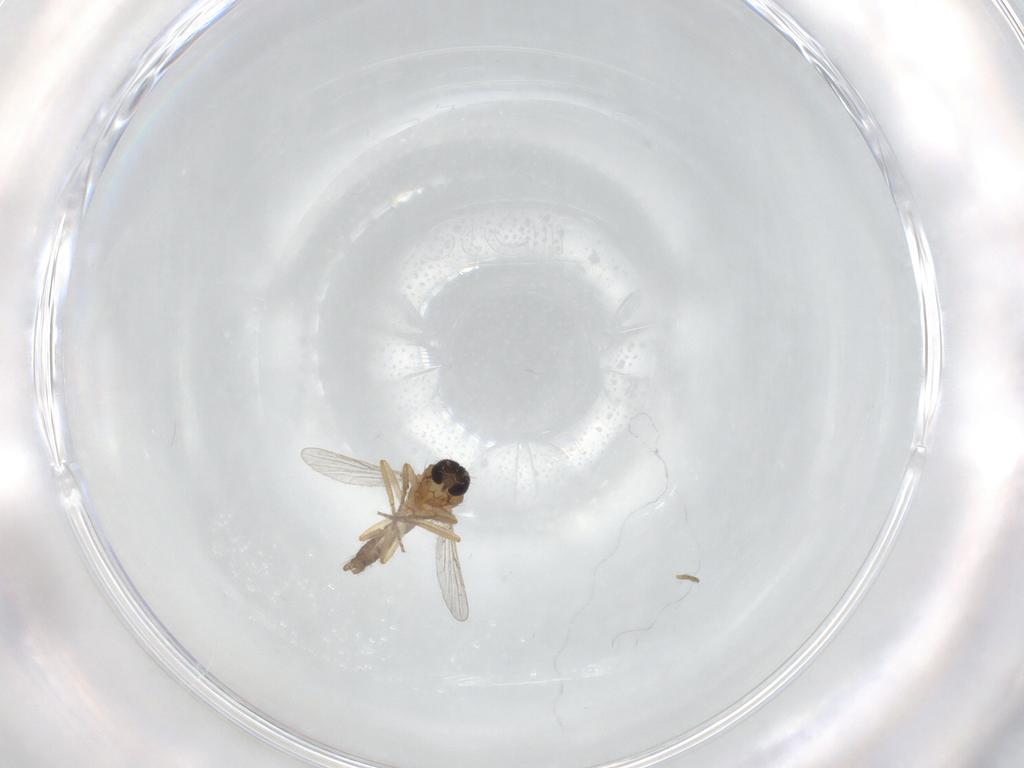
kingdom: Animalia
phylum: Arthropoda
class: Insecta
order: Diptera
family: Ceratopogonidae
